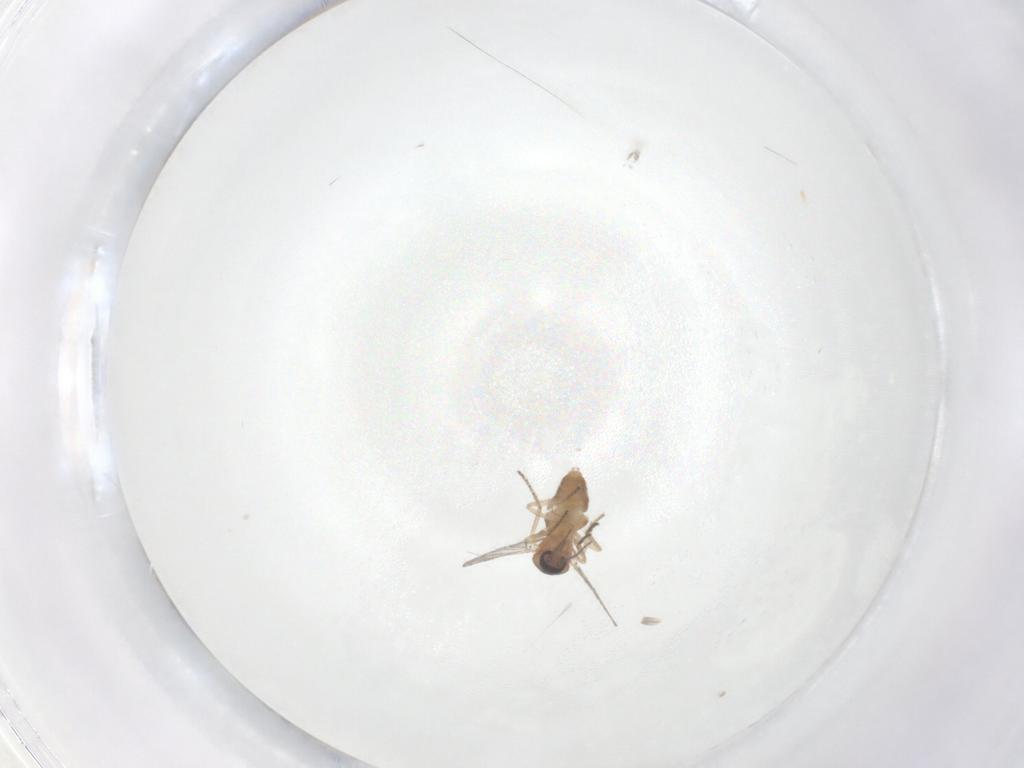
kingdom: Animalia
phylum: Arthropoda
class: Insecta
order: Diptera
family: Ceratopogonidae
